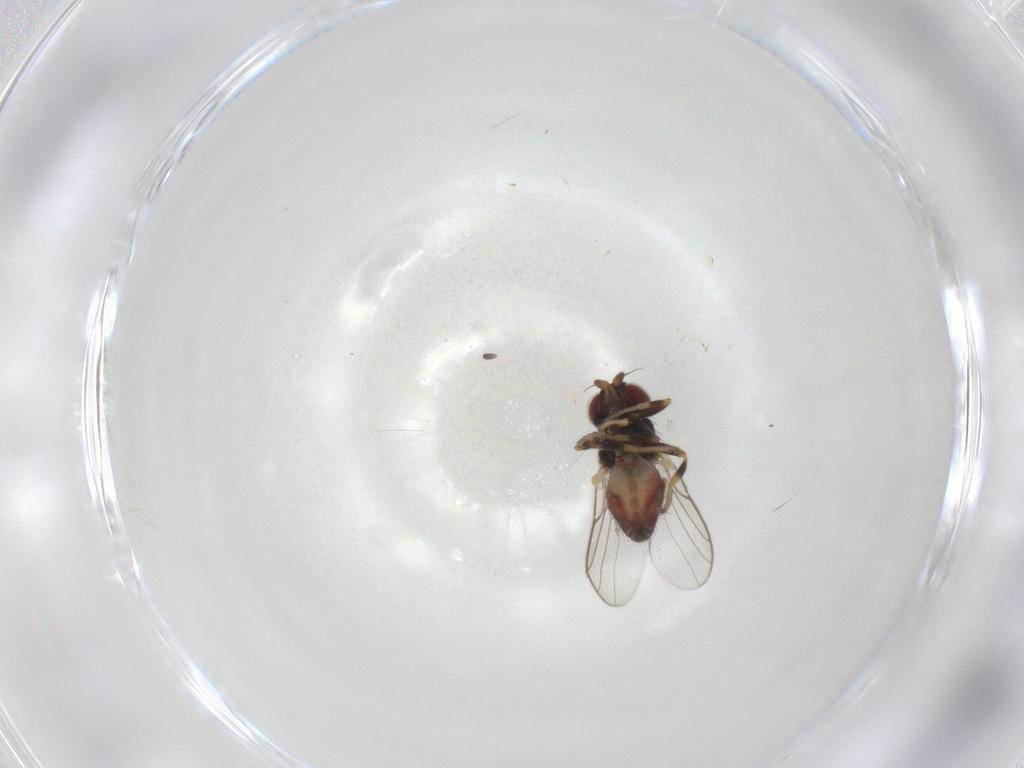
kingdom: Animalia
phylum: Arthropoda
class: Insecta
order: Diptera
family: Chloropidae
